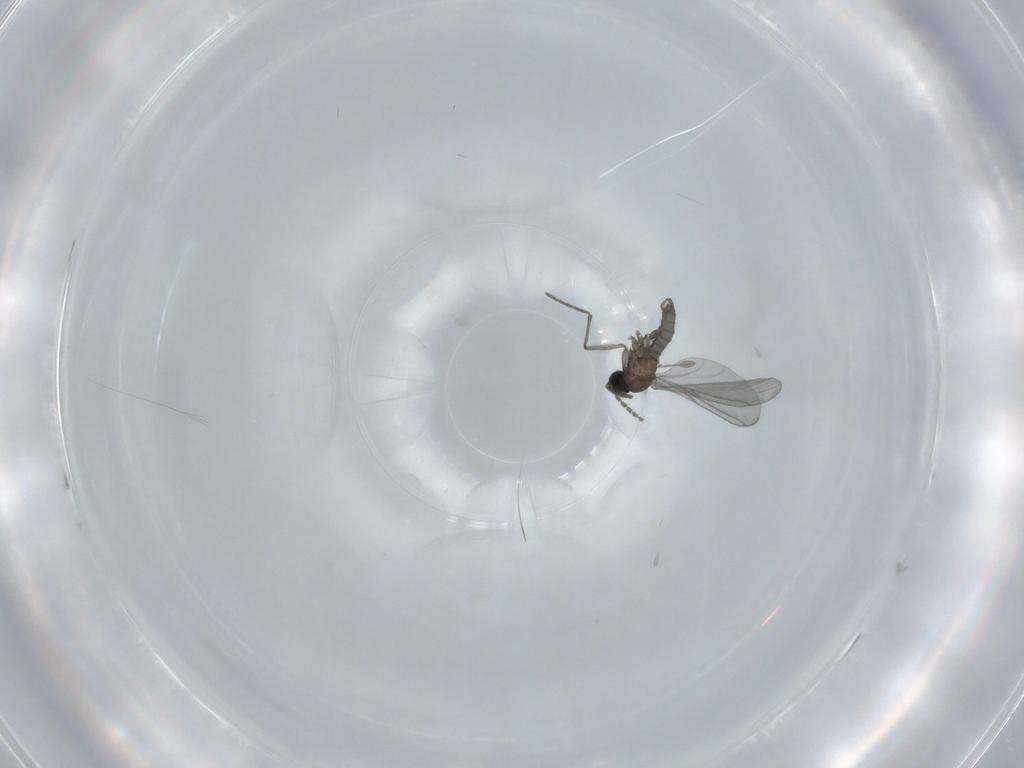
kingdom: Animalia
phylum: Arthropoda
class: Insecta
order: Diptera
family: Sciaridae
